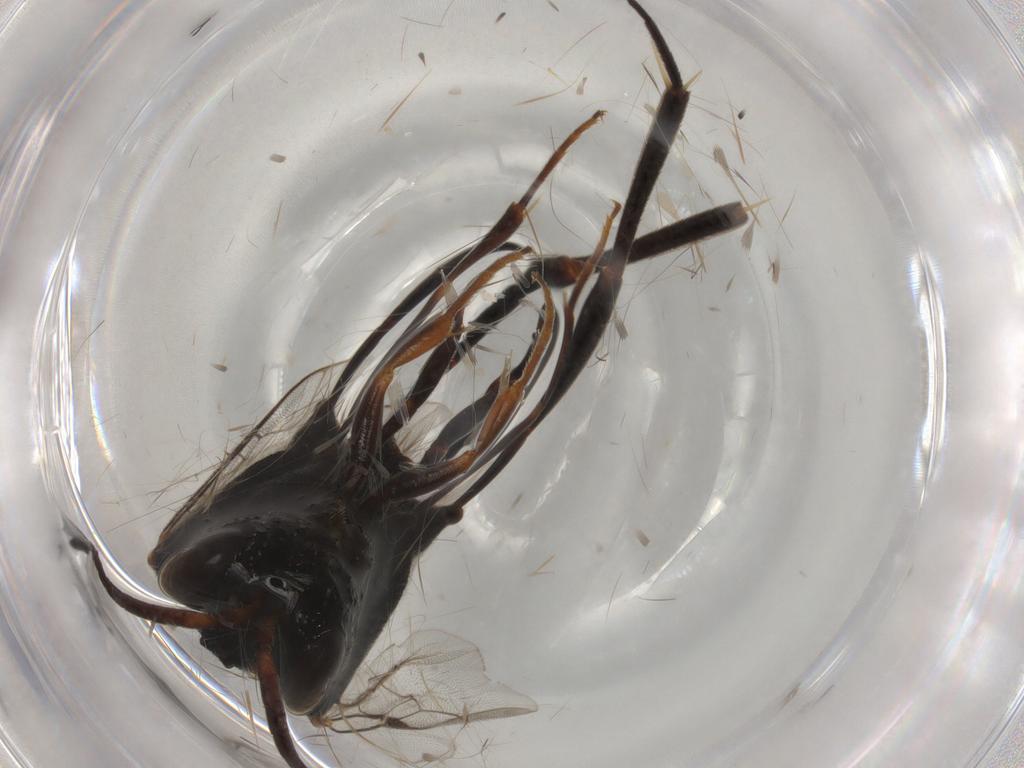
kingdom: Animalia
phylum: Arthropoda
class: Insecta
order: Hymenoptera
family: Evaniidae
